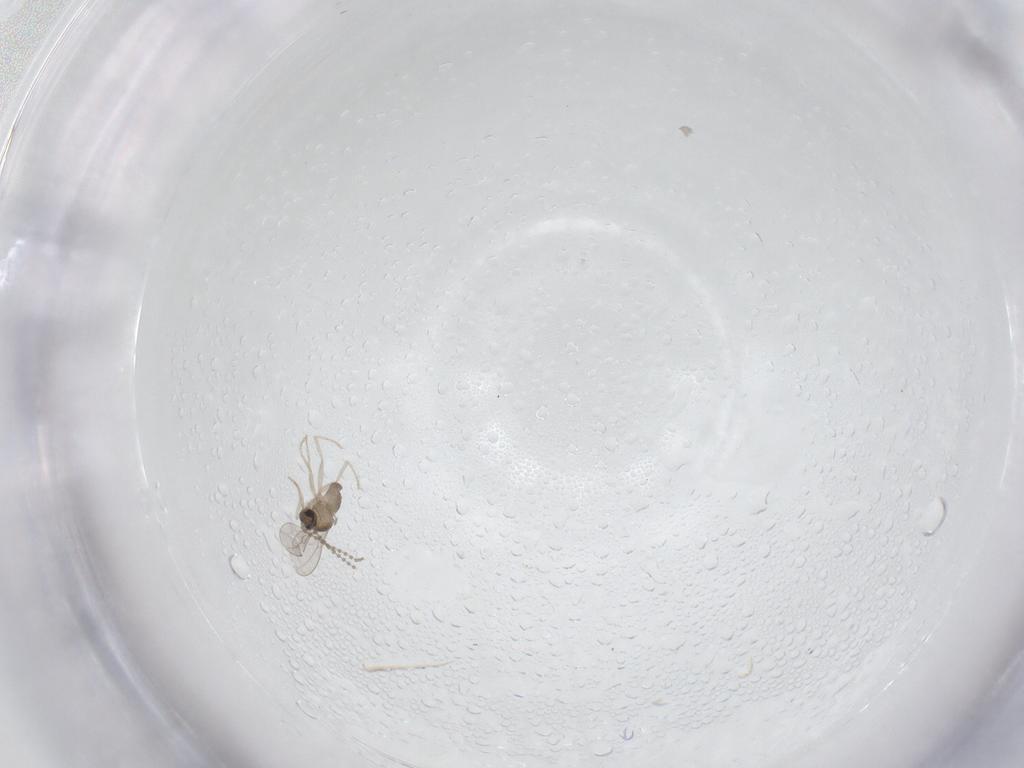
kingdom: Animalia
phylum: Arthropoda
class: Insecta
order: Diptera
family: Cecidomyiidae
